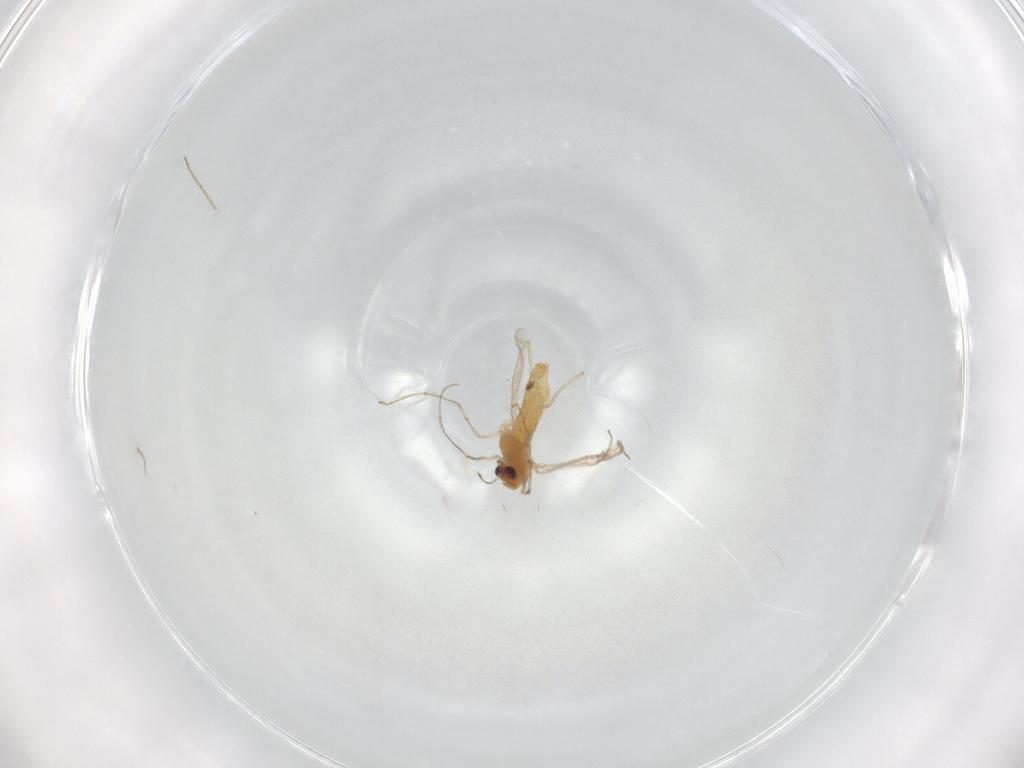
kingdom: Animalia
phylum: Arthropoda
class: Insecta
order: Diptera
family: Chironomidae
